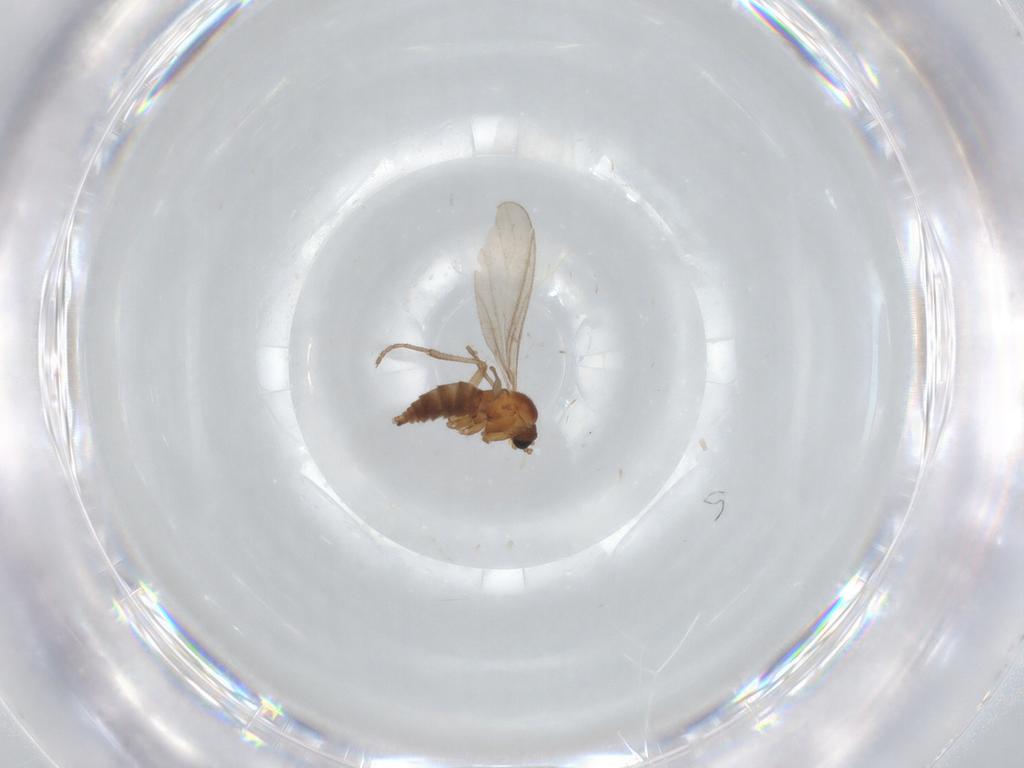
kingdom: Animalia
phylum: Arthropoda
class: Insecta
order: Diptera
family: Sciaridae
